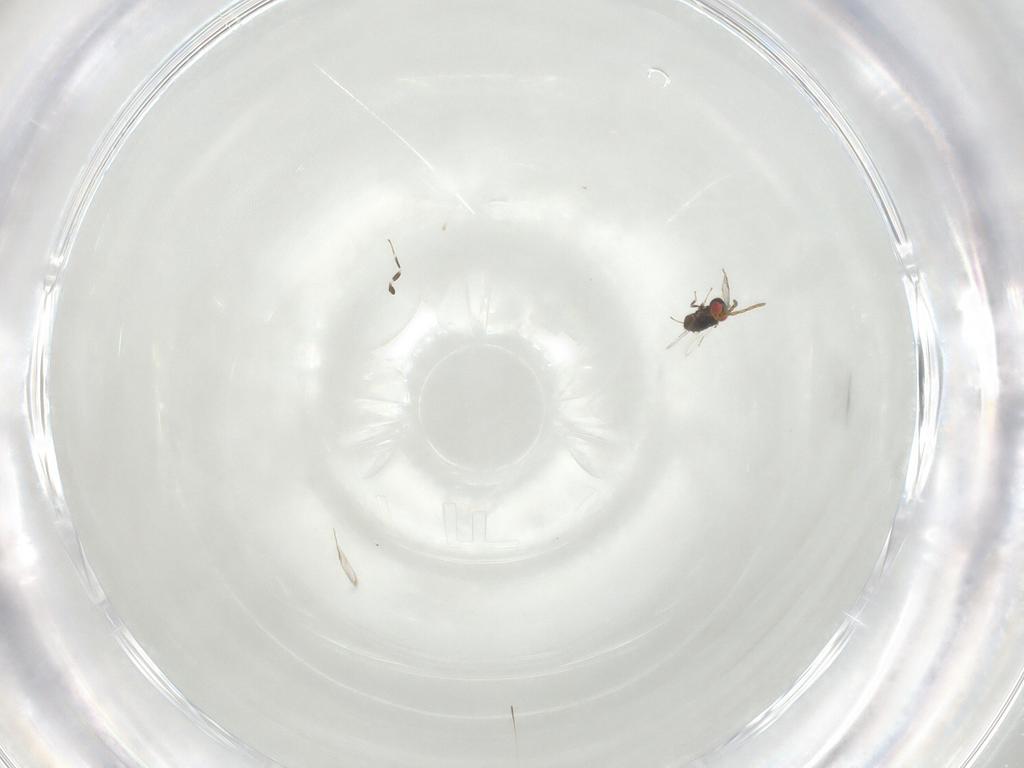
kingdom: Animalia
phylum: Arthropoda
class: Insecta
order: Hymenoptera
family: Azotidae
